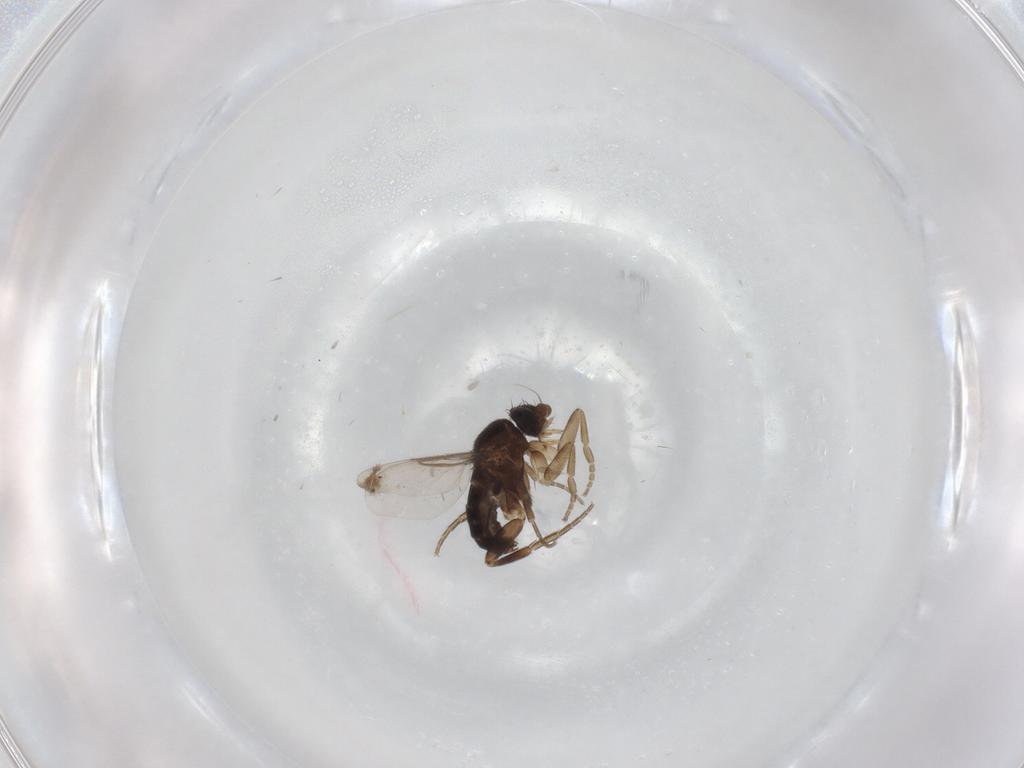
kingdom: Animalia
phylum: Arthropoda
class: Insecta
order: Diptera
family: Phoridae
